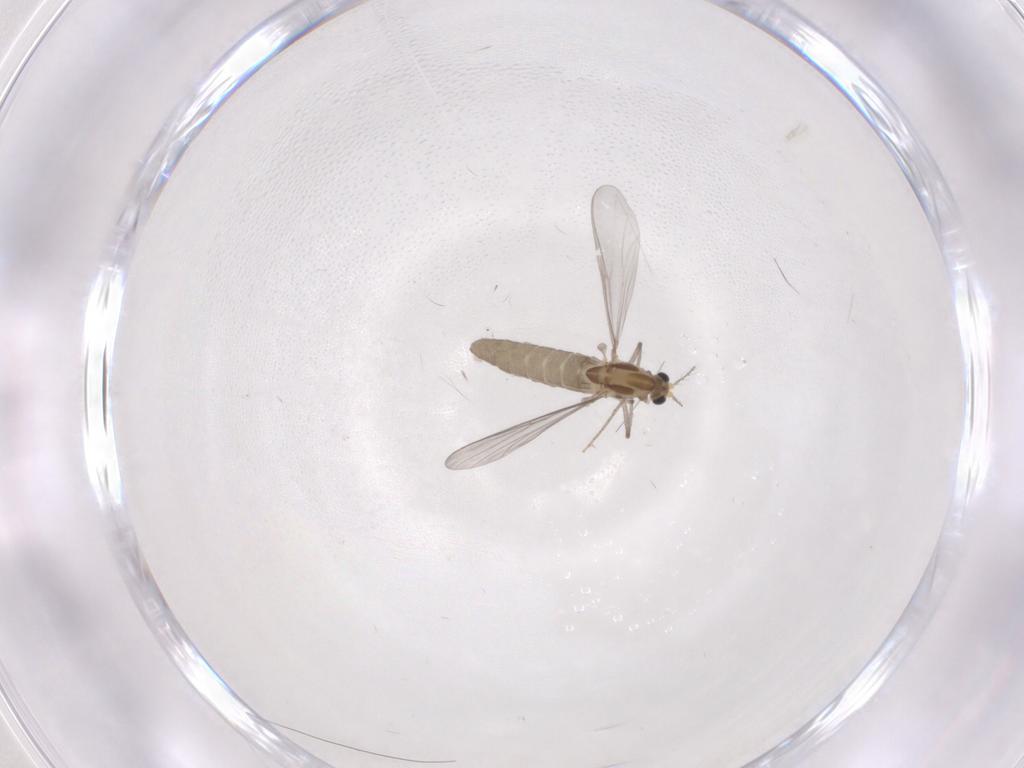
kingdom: Animalia
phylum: Arthropoda
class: Insecta
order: Diptera
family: Chironomidae
